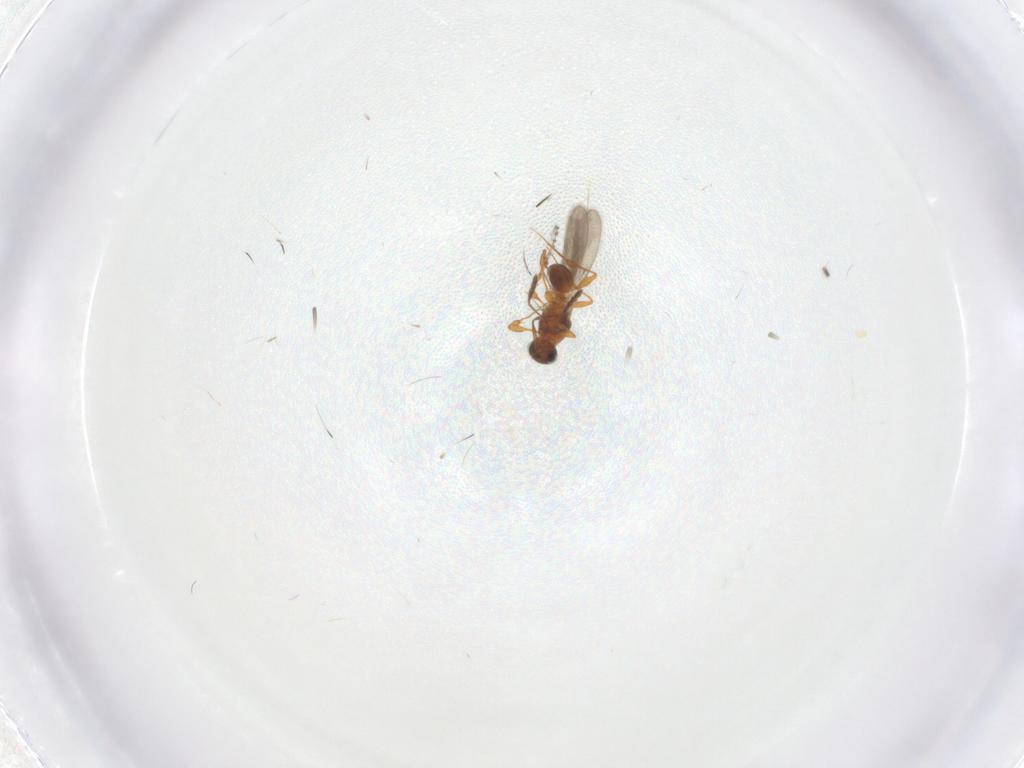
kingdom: Animalia
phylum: Arthropoda
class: Insecta
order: Hymenoptera
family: Platygastridae
